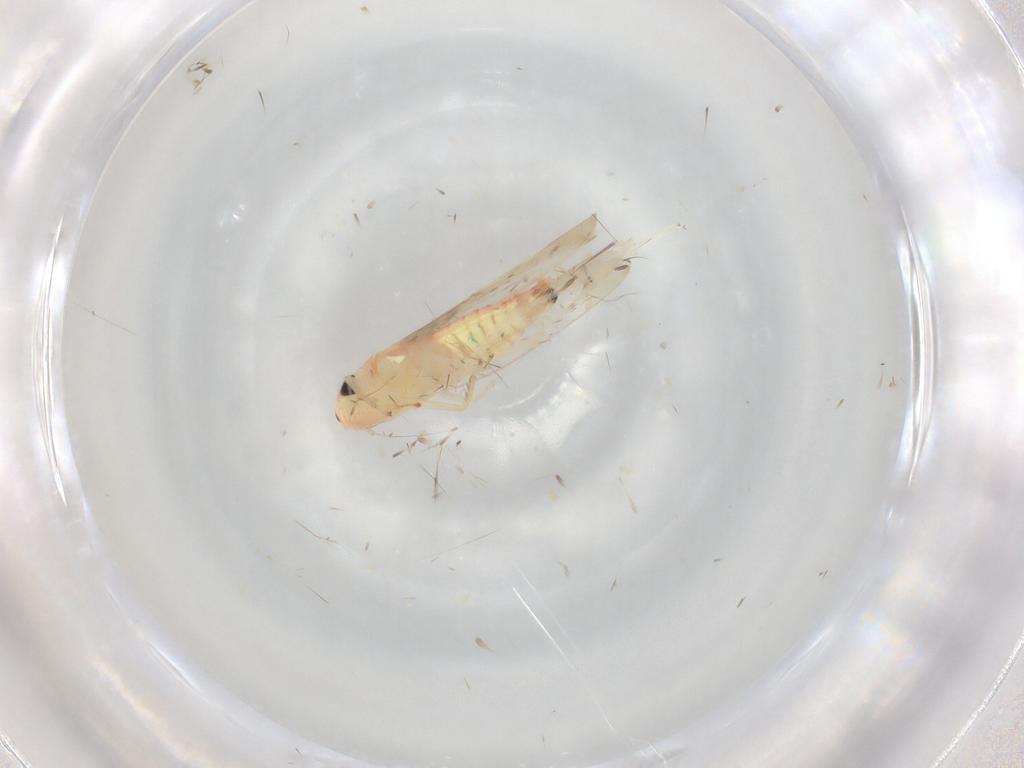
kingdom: Animalia
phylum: Arthropoda
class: Insecta
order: Hemiptera
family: Cicadellidae
